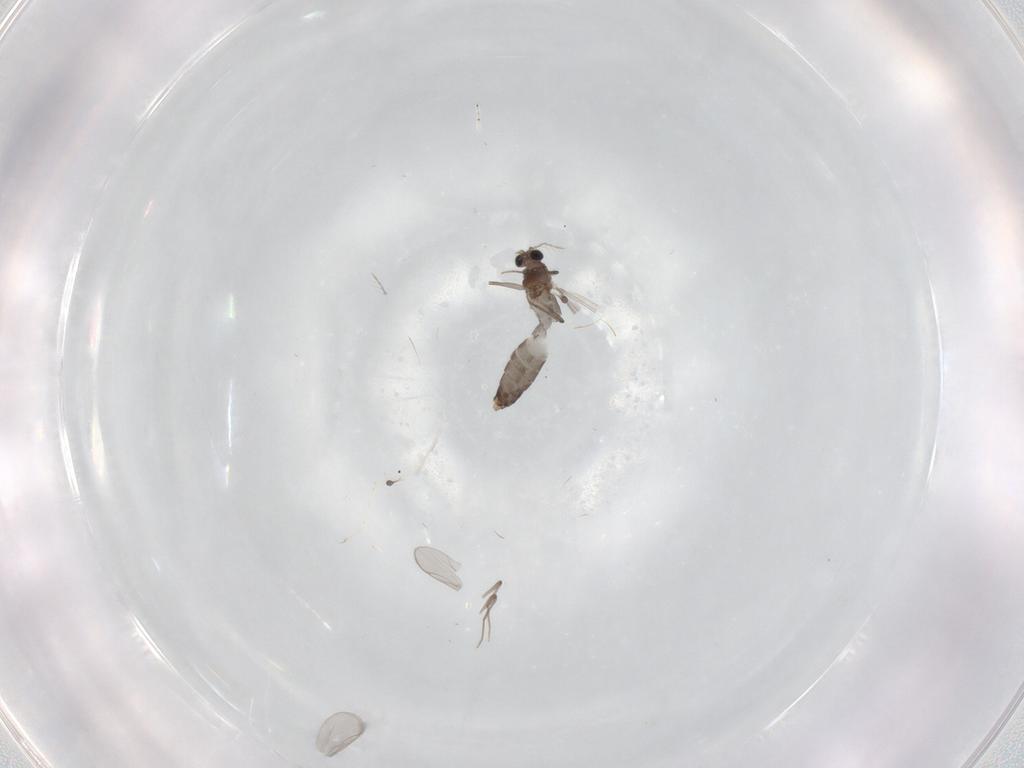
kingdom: Animalia
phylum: Arthropoda
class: Insecta
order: Diptera
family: Chironomidae
